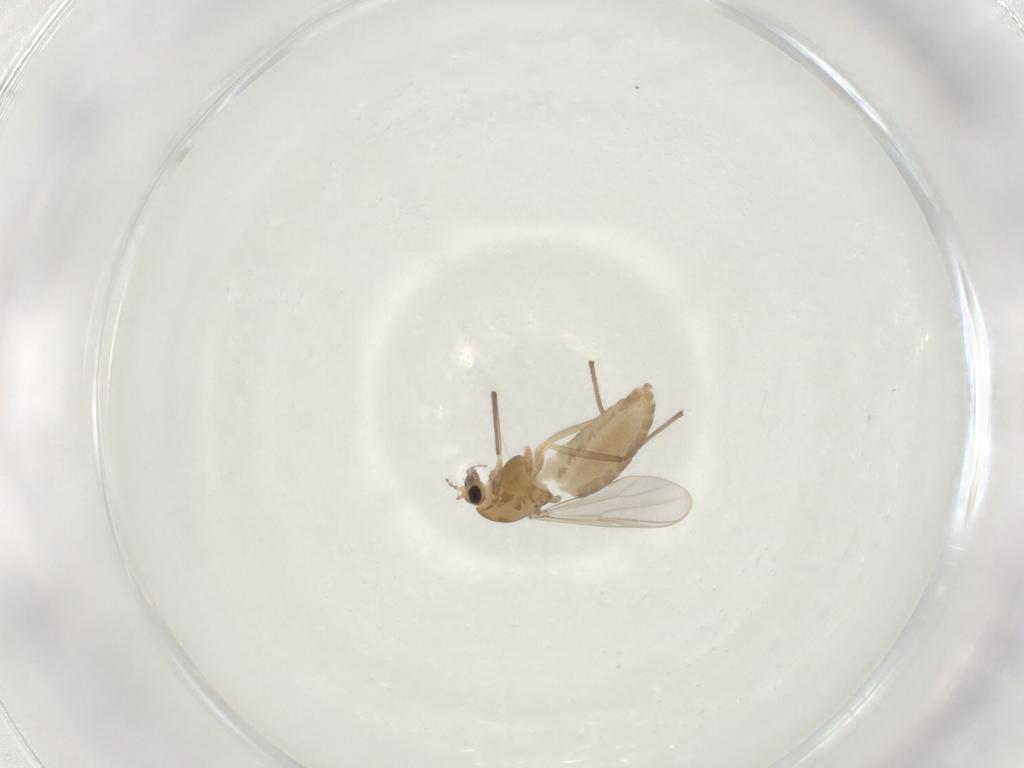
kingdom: Animalia
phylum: Arthropoda
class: Insecta
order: Diptera
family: Chironomidae
